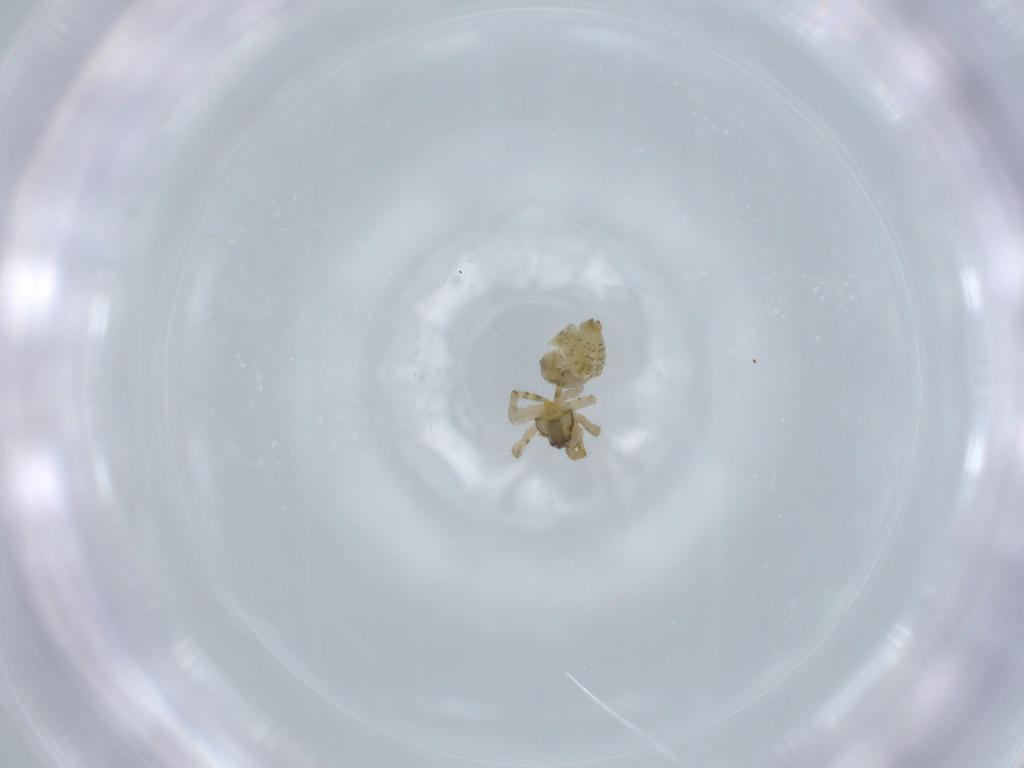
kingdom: Animalia
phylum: Arthropoda
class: Arachnida
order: Araneae
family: Theridiidae
